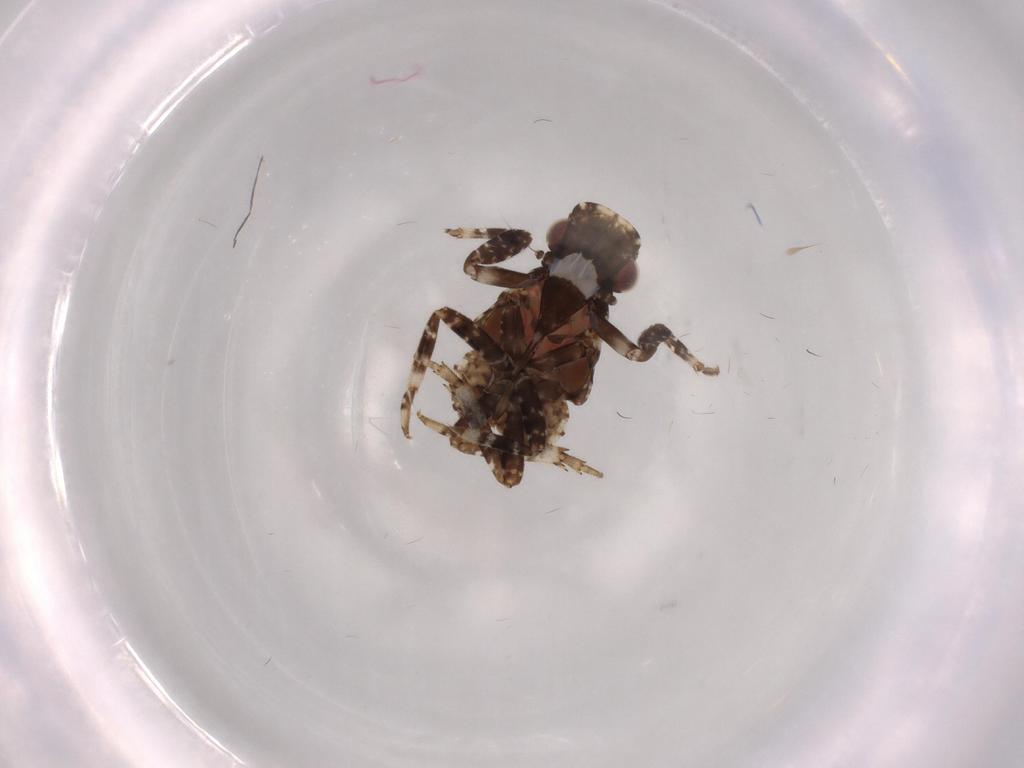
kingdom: Animalia
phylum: Arthropoda
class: Insecta
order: Hemiptera
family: Fulgoridae
